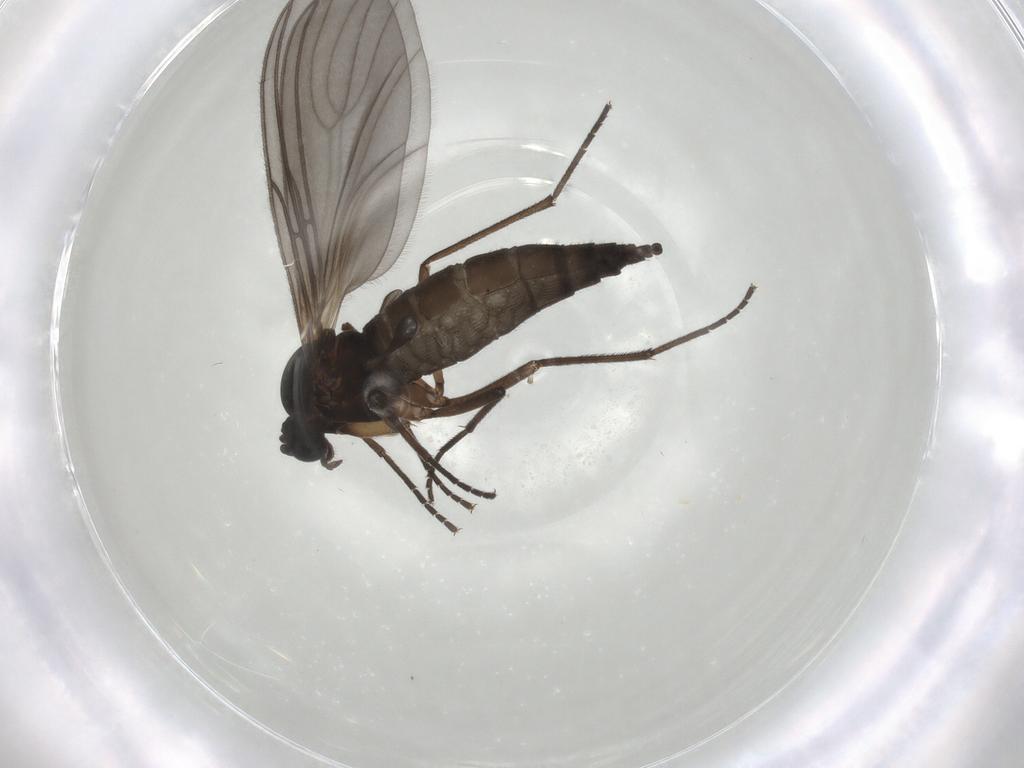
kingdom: Animalia
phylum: Arthropoda
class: Insecta
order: Diptera
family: Sciaridae
